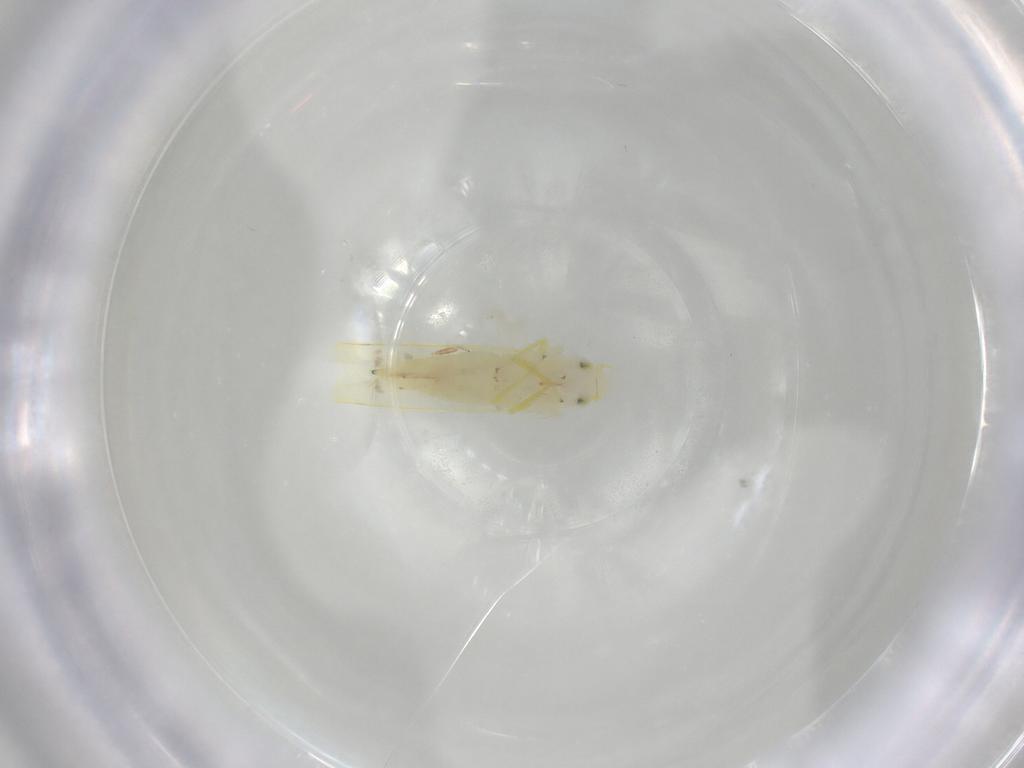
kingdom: Animalia
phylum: Arthropoda
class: Insecta
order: Hemiptera
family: Cicadellidae
